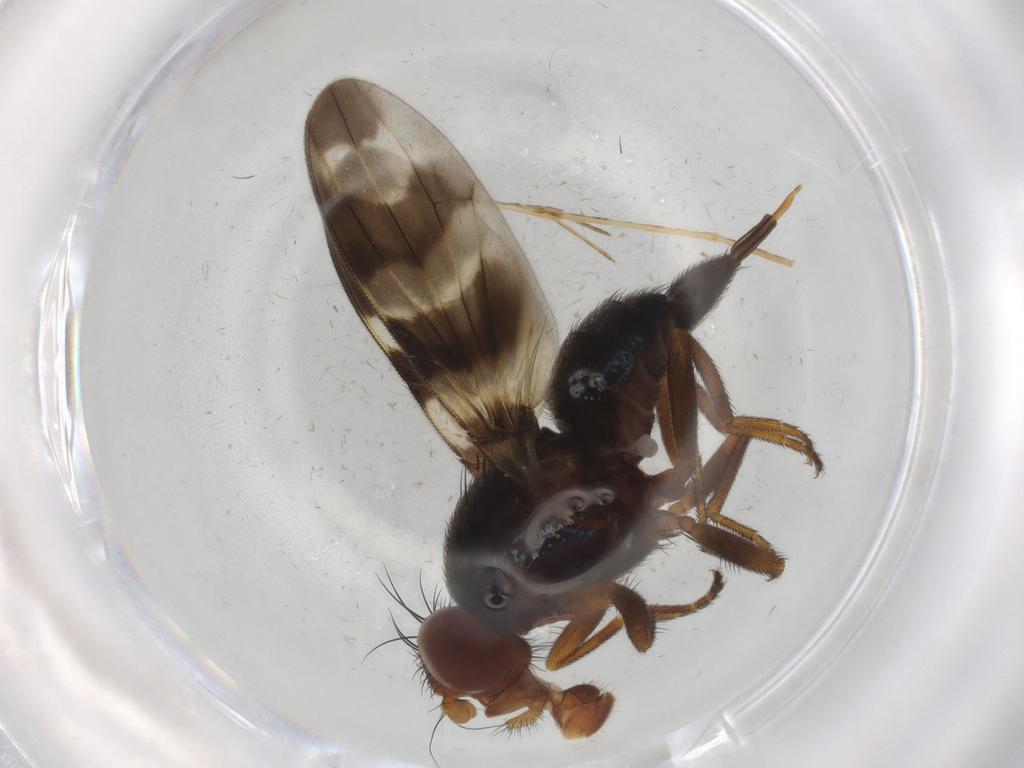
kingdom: Animalia
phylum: Arthropoda
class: Insecta
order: Diptera
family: Ulidiidae
